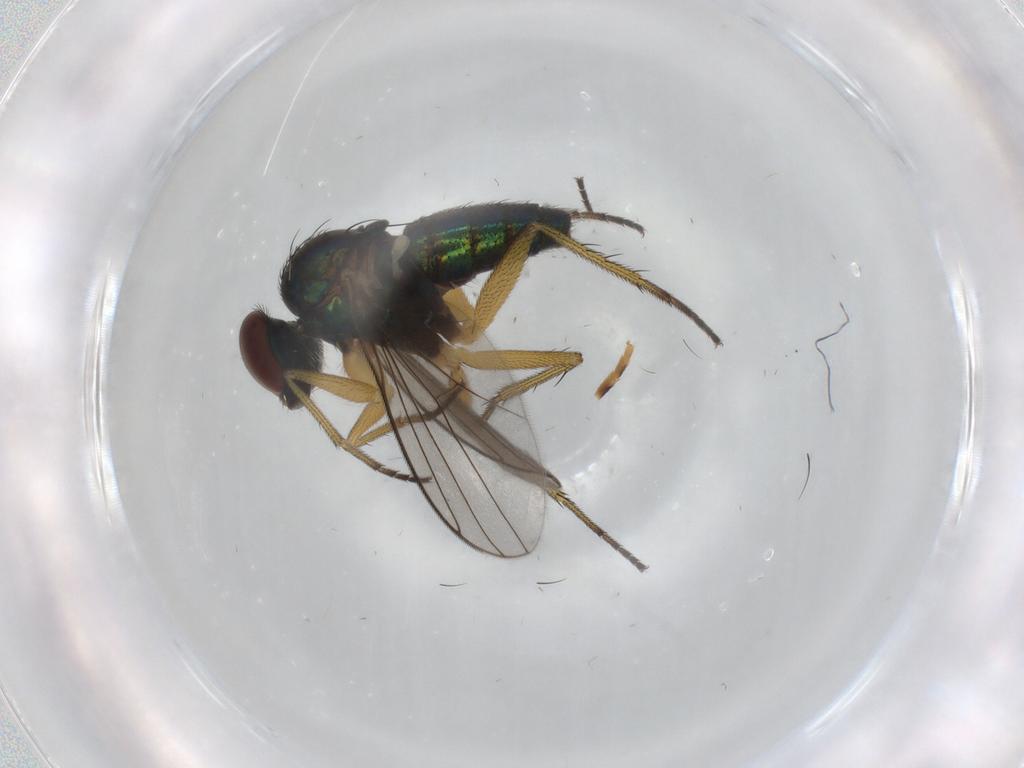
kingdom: Animalia
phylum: Arthropoda
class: Insecta
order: Diptera
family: Dolichopodidae
